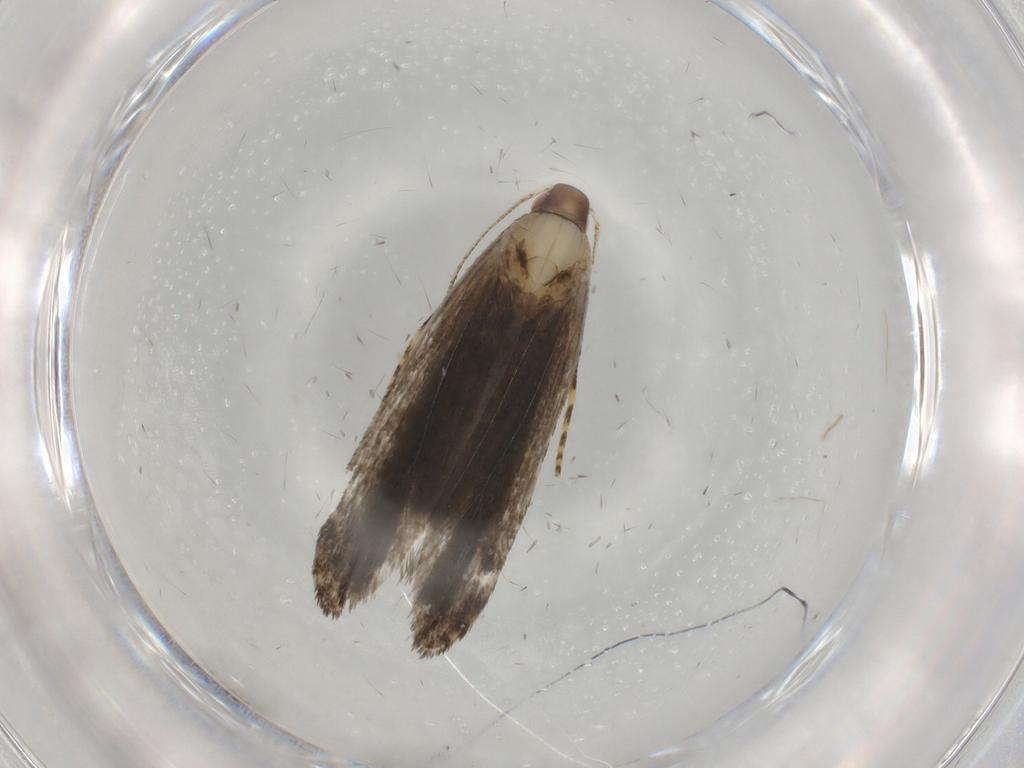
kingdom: Animalia
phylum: Arthropoda
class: Insecta
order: Lepidoptera
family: Gelechiidae
